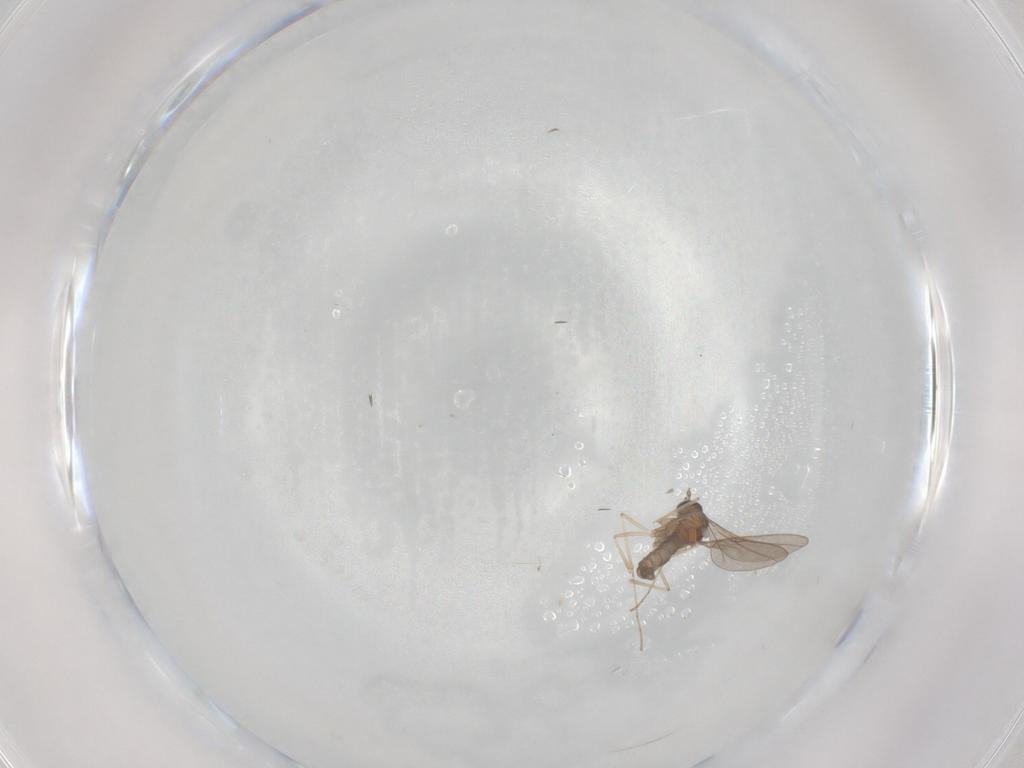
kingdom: Animalia
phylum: Arthropoda
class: Insecta
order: Diptera
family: Cecidomyiidae
